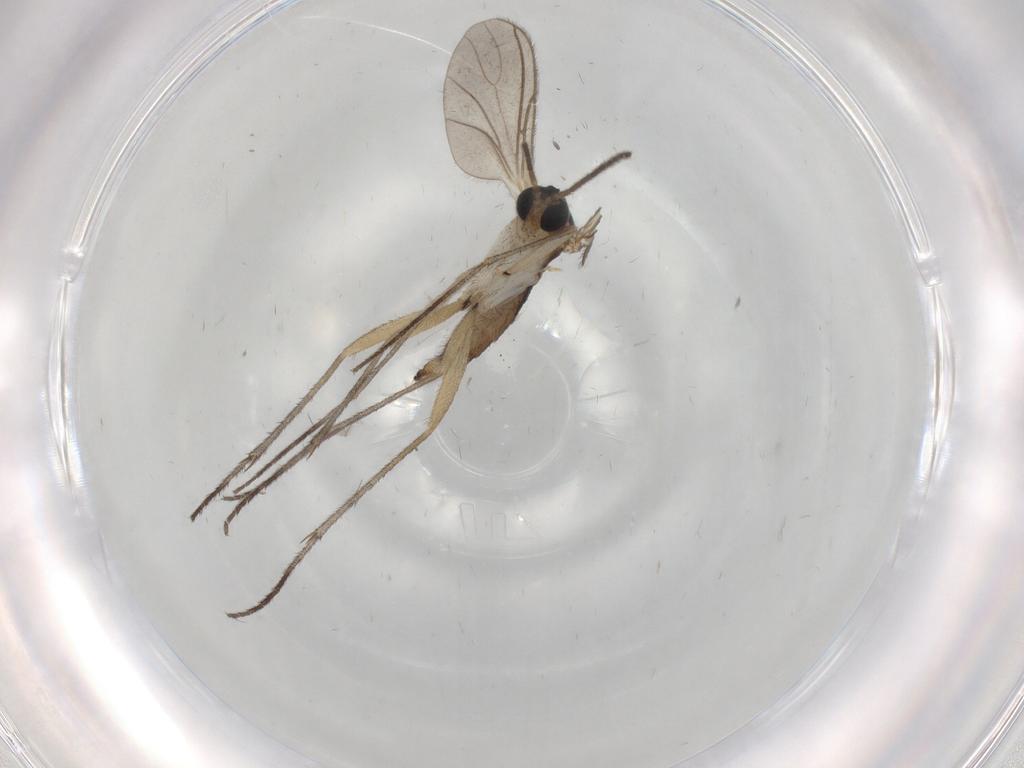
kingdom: Animalia
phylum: Arthropoda
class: Insecta
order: Diptera
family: Sciaridae
